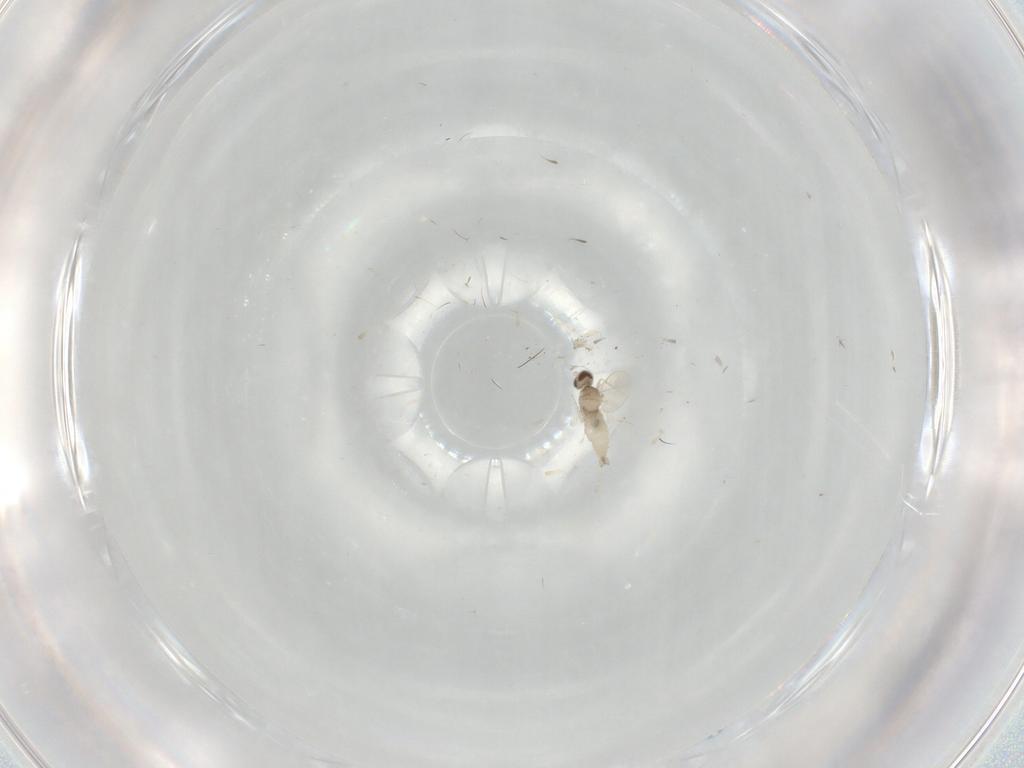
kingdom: Animalia
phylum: Arthropoda
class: Insecta
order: Diptera
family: Cecidomyiidae
